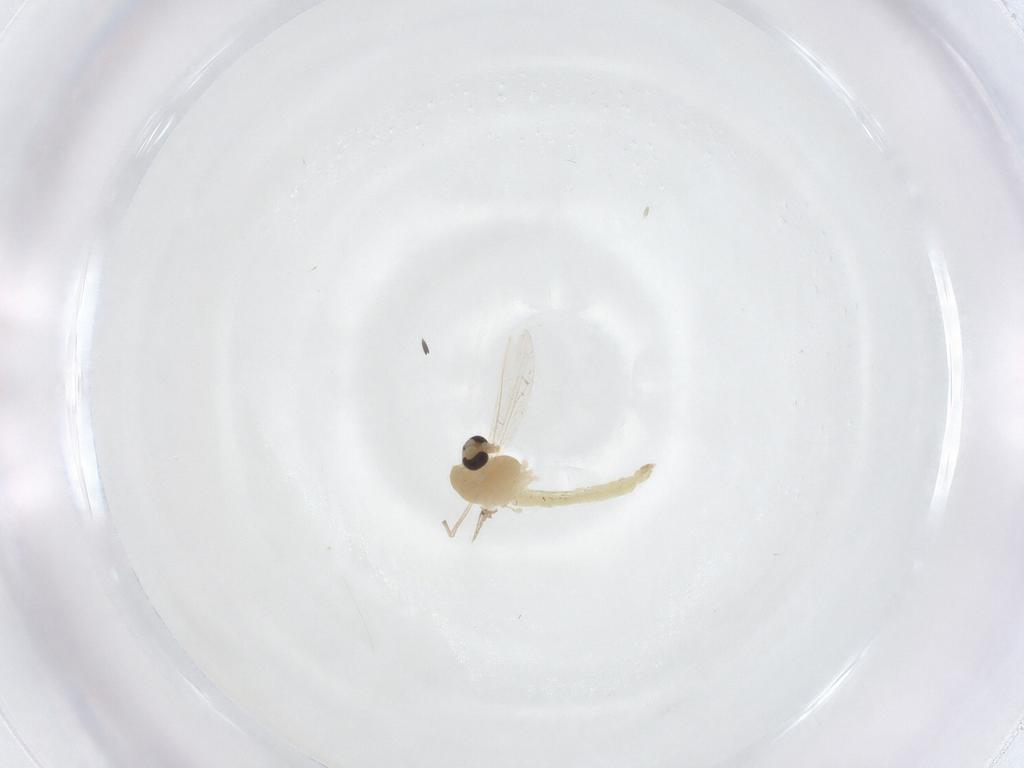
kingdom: Animalia
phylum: Arthropoda
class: Insecta
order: Diptera
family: Chironomidae
